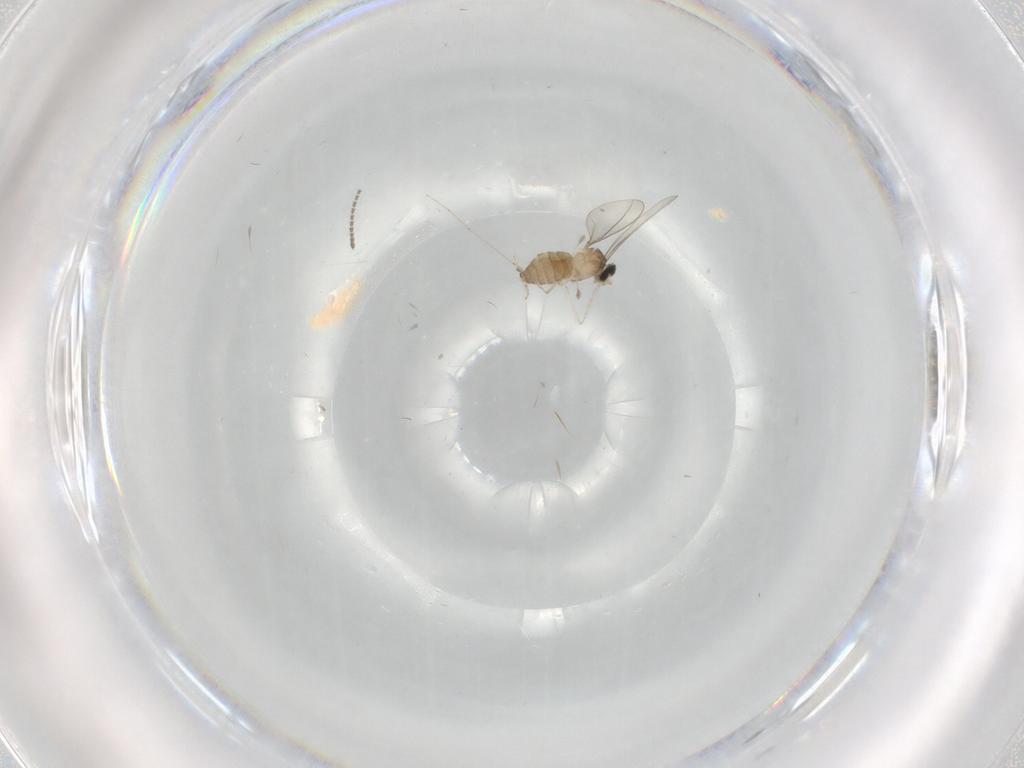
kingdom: Animalia
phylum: Arthropoda
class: Insecta
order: Diptera
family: Cecidomyiidae
